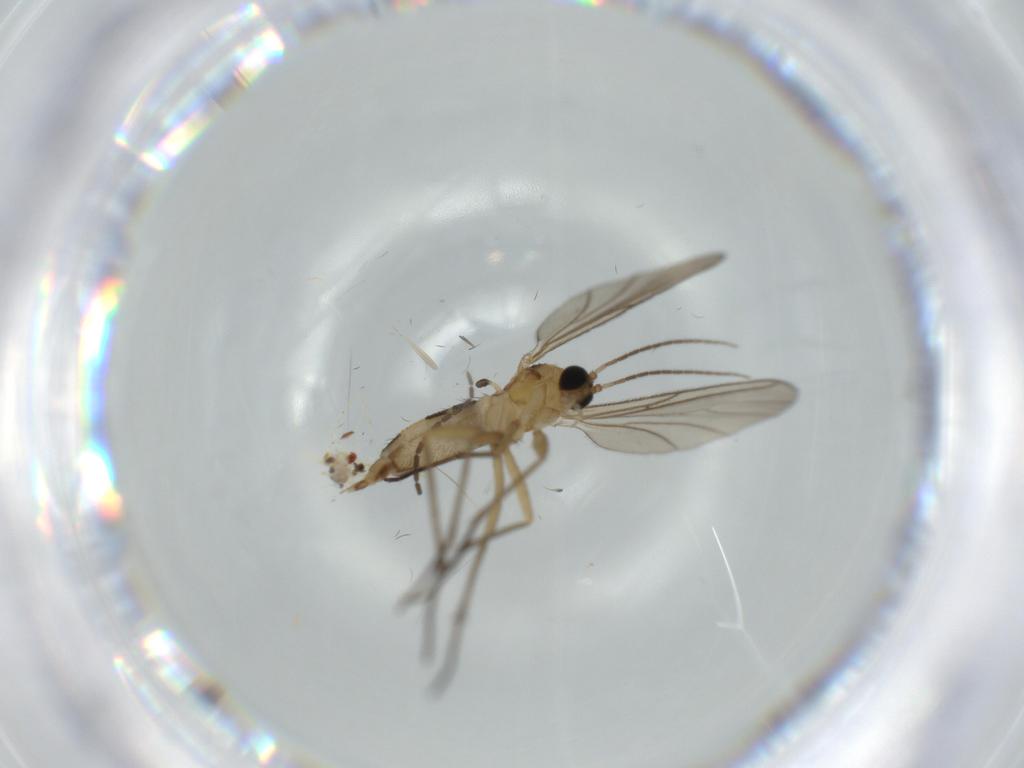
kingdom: Animalia
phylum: Arthropoda
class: Insecta
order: Diptera
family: Sciaridae
